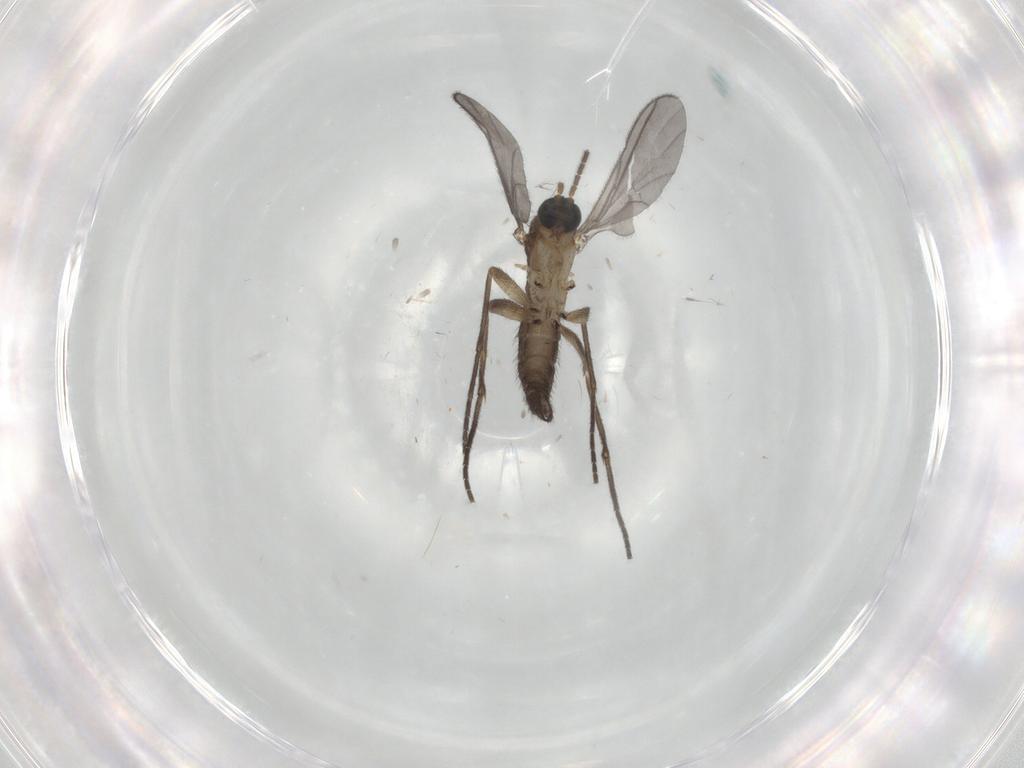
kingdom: Animalia
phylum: Arthropoda
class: Insecta
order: Diptera
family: Sciaridae
